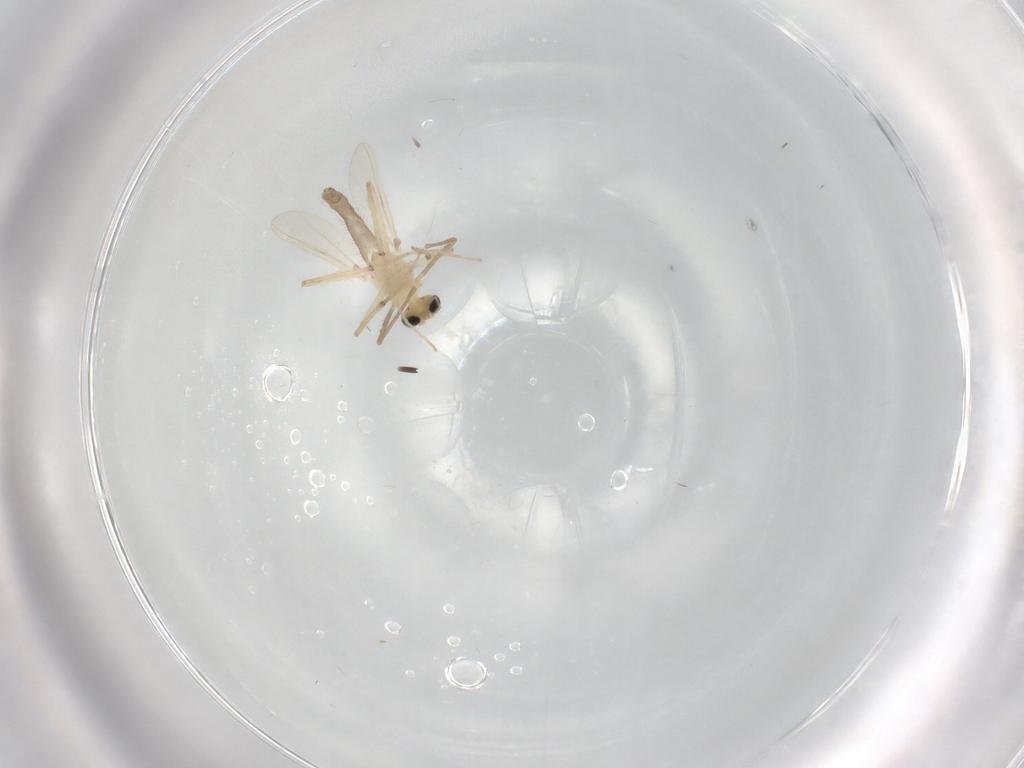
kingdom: Animalia
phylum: Arthropoda
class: Insecta
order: Diptera
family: Chironomidae
